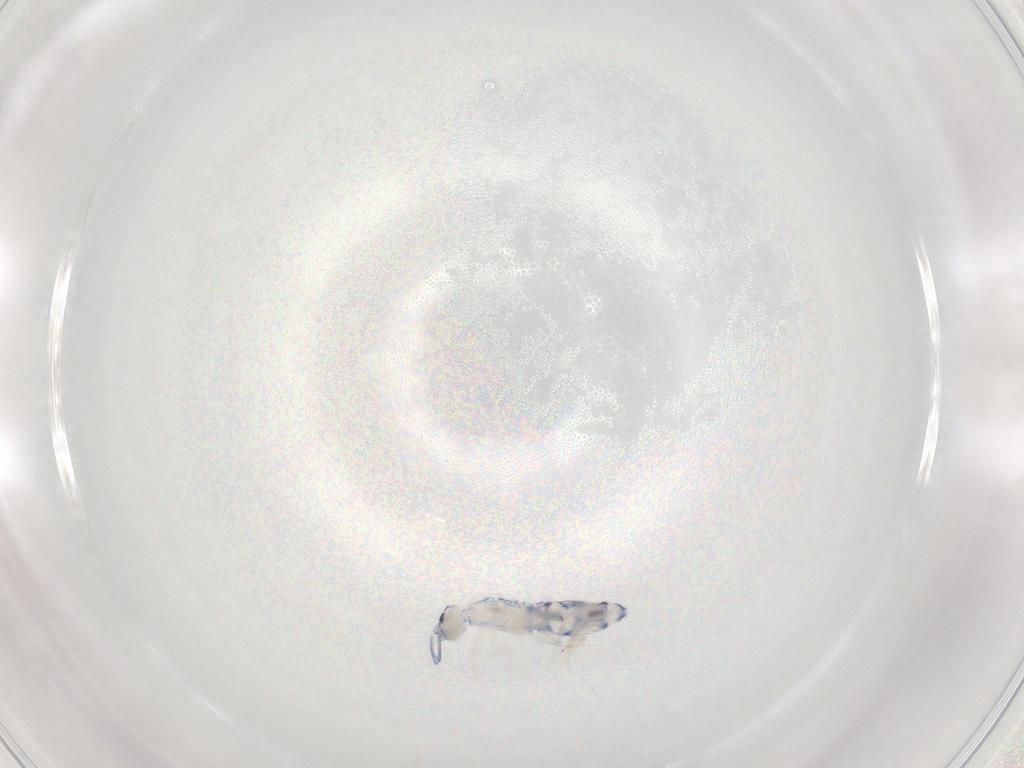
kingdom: Animalia
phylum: Arthropoda
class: Collembola
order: Entomobryomorpha
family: Entomobryidae
